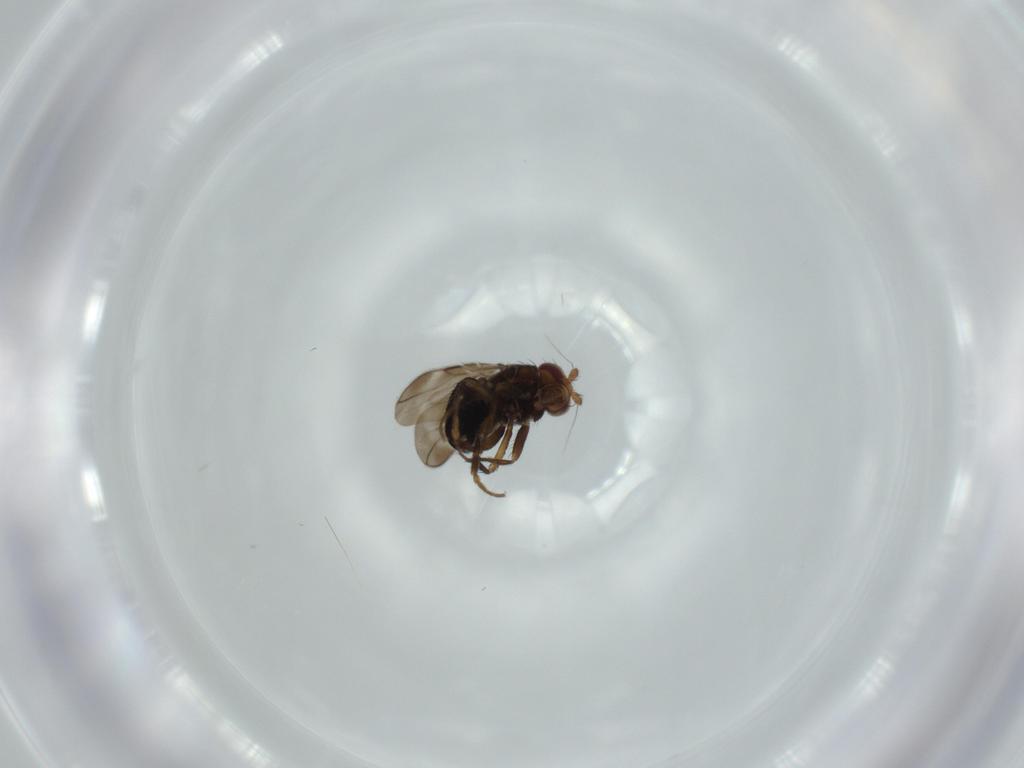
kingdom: Animalia
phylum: Arthropoda
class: Insecta
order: Diptera
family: Sphaeroceridae
